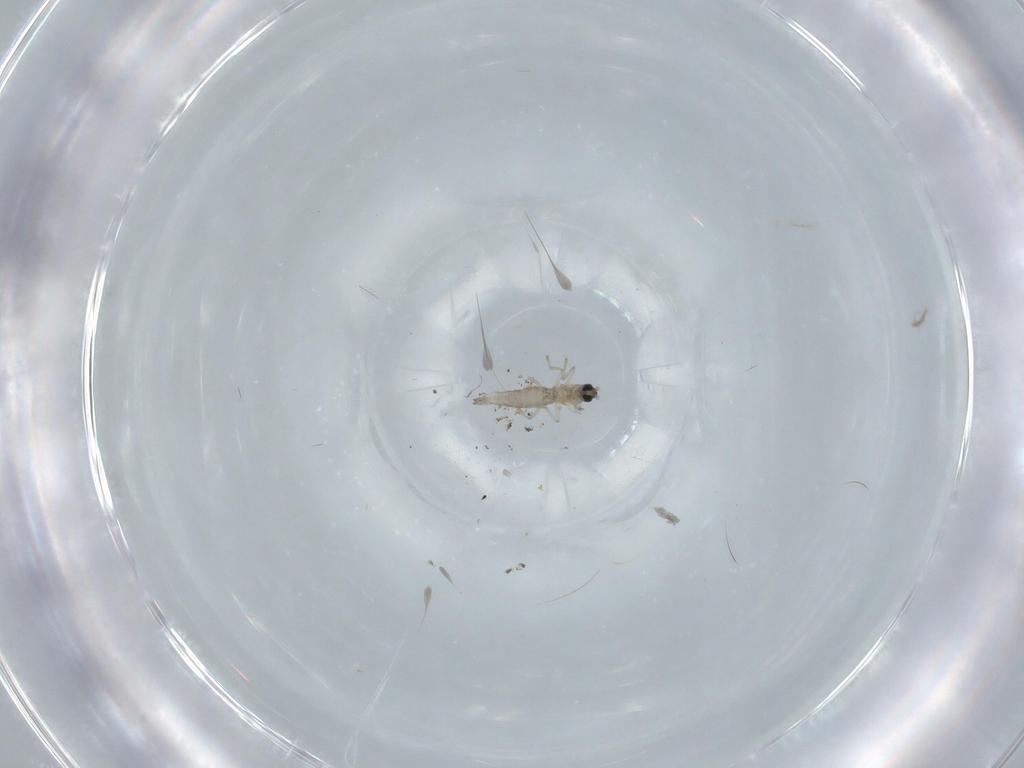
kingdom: Animalia
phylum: Arthropoda
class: Insecta
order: Diptera
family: Cecidomyiidae
